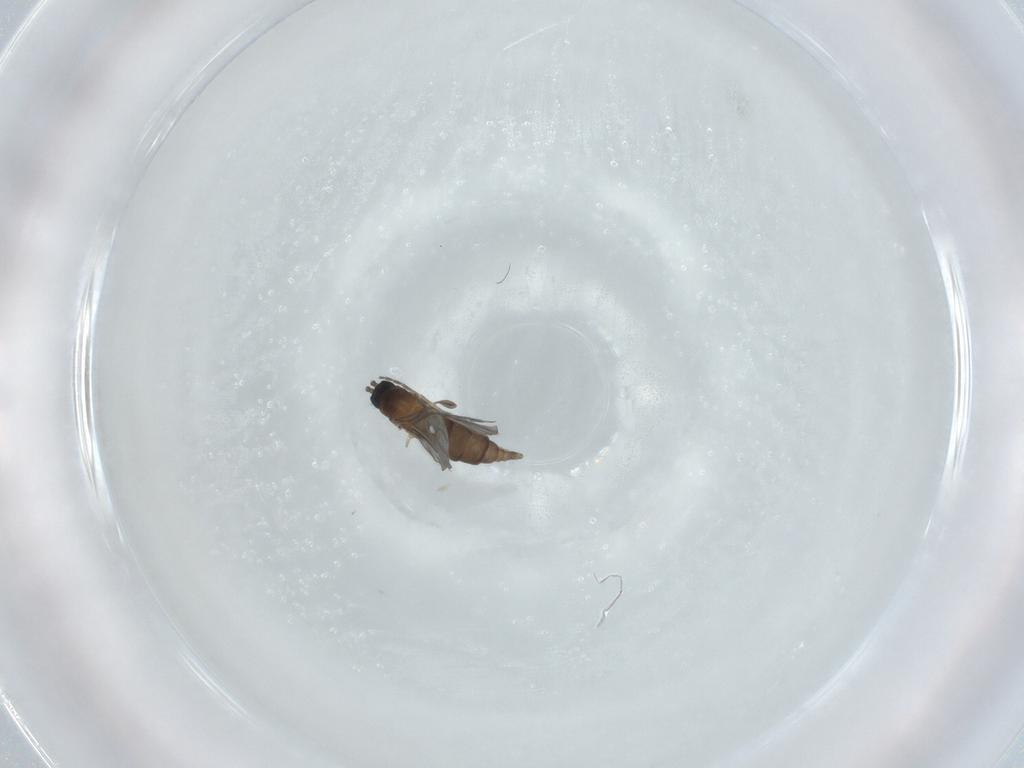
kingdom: Animalia
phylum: Arthropoda
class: Insecta
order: Diptera
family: Sciaridae
